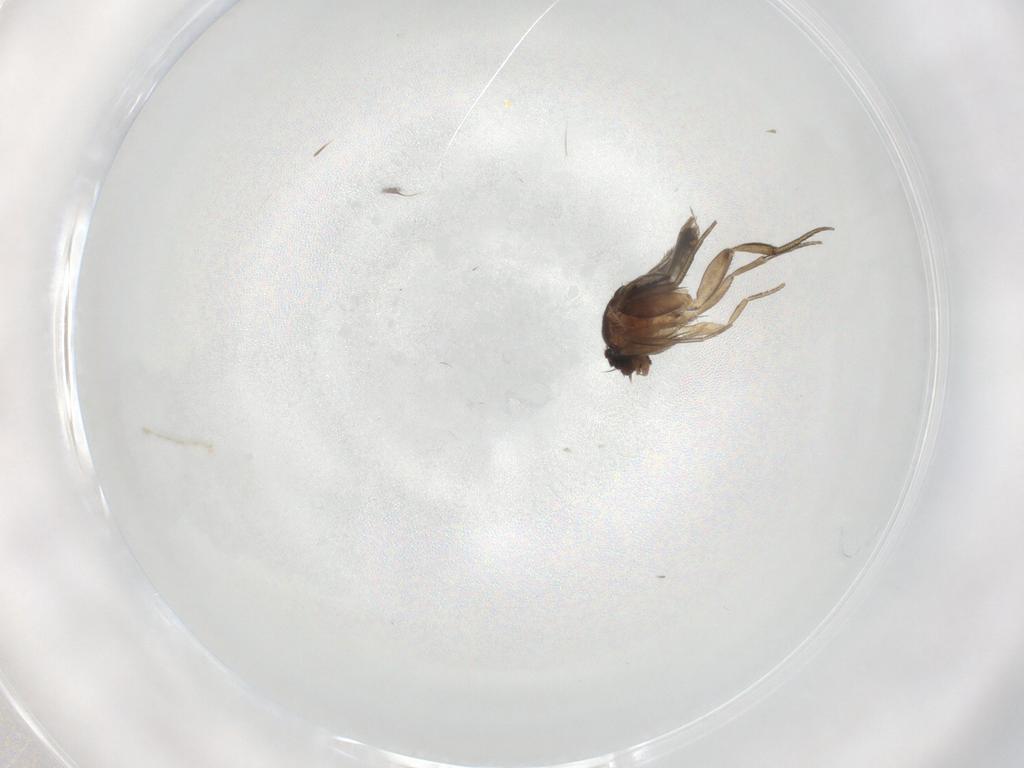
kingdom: Animalia
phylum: Arthropoda
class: Insecta
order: Diptera
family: Phoridae
